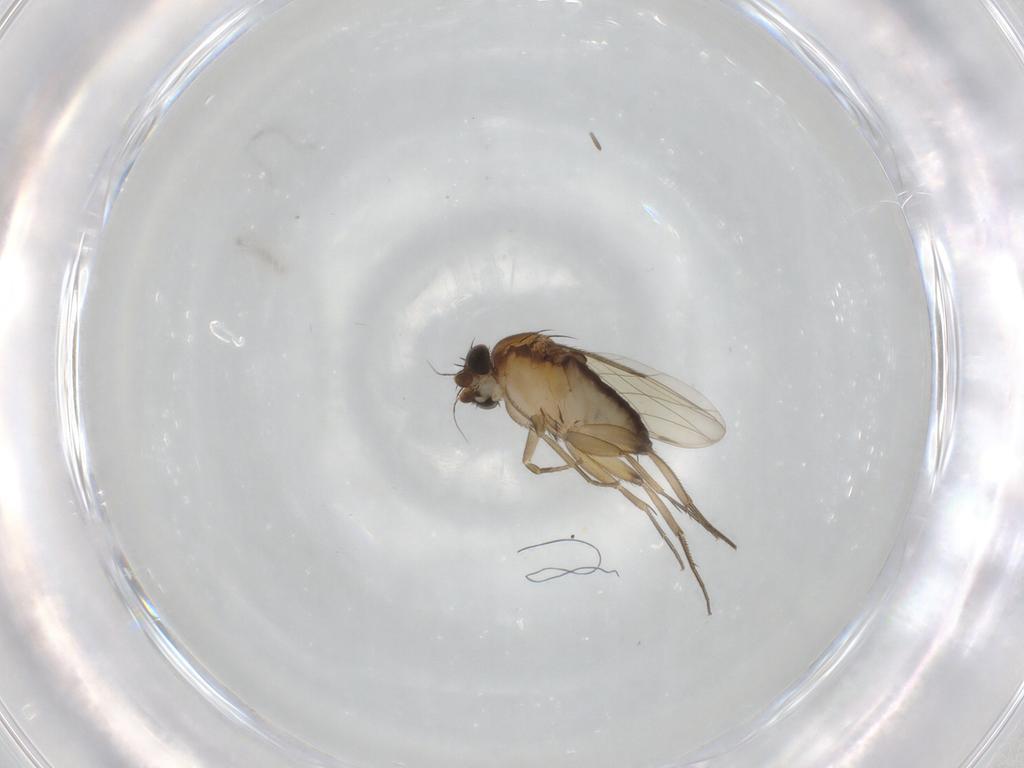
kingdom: Animalia
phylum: Arthropoda
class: Insecta
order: Diptera
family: Phoridae
